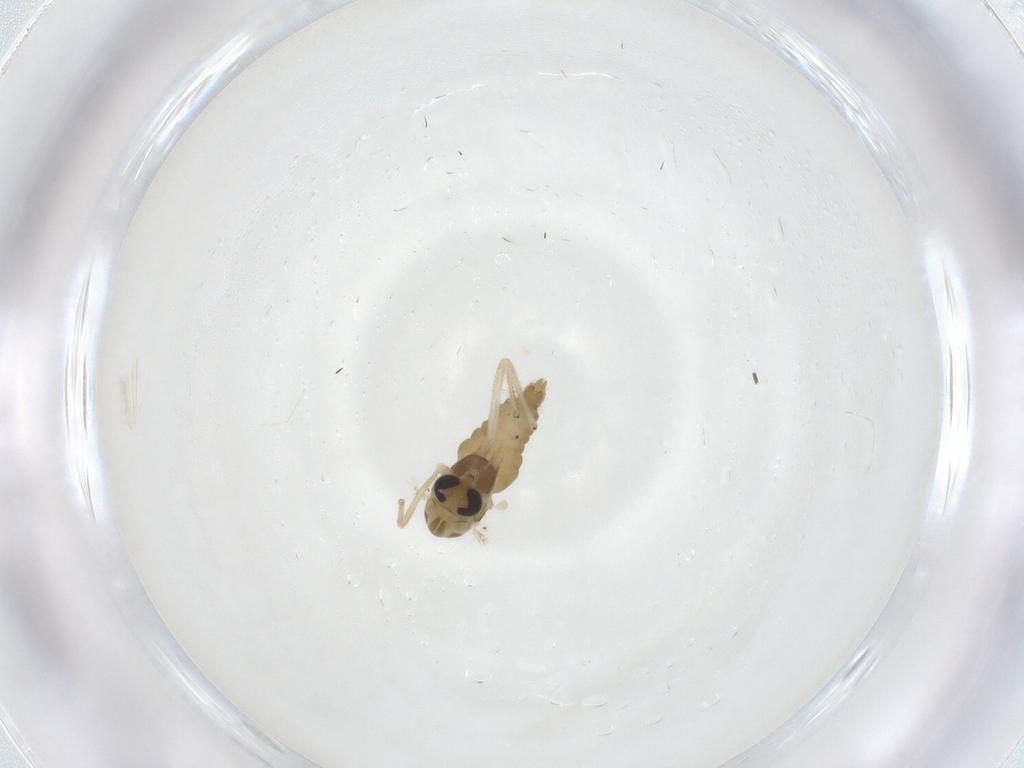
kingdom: Animalia
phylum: Arthropoda
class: Insecta
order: Diptera
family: Chironomidae
